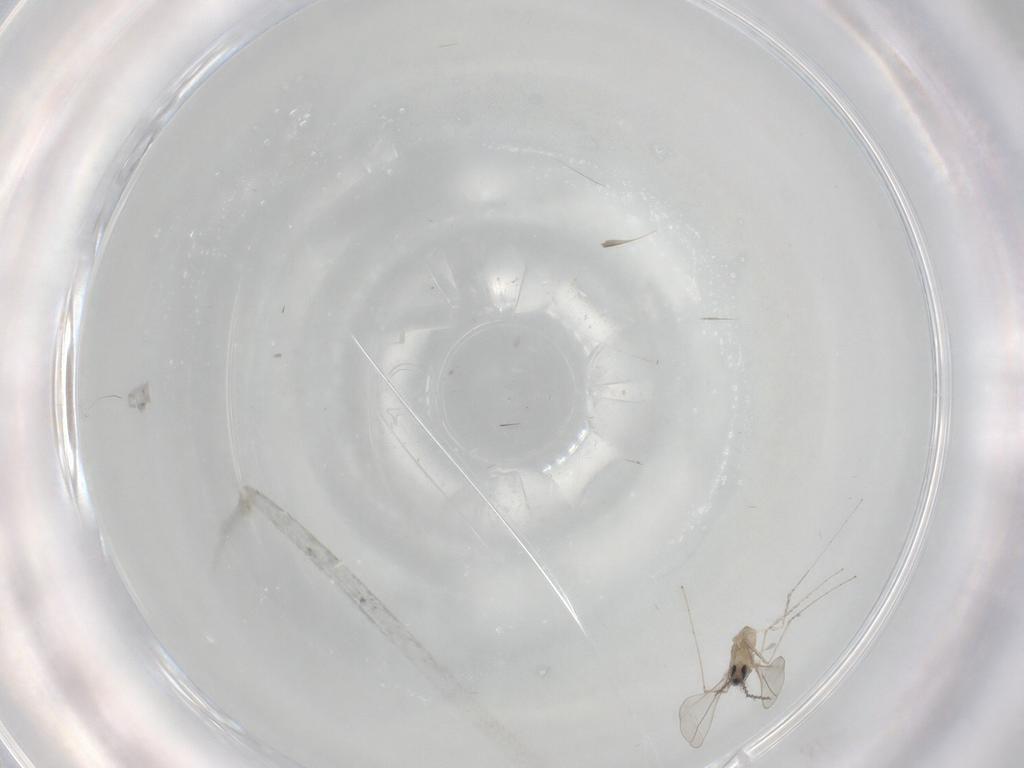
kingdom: Animalia
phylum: Arthropoda
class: Insecta
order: Diptera
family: Cecidomyiidae
